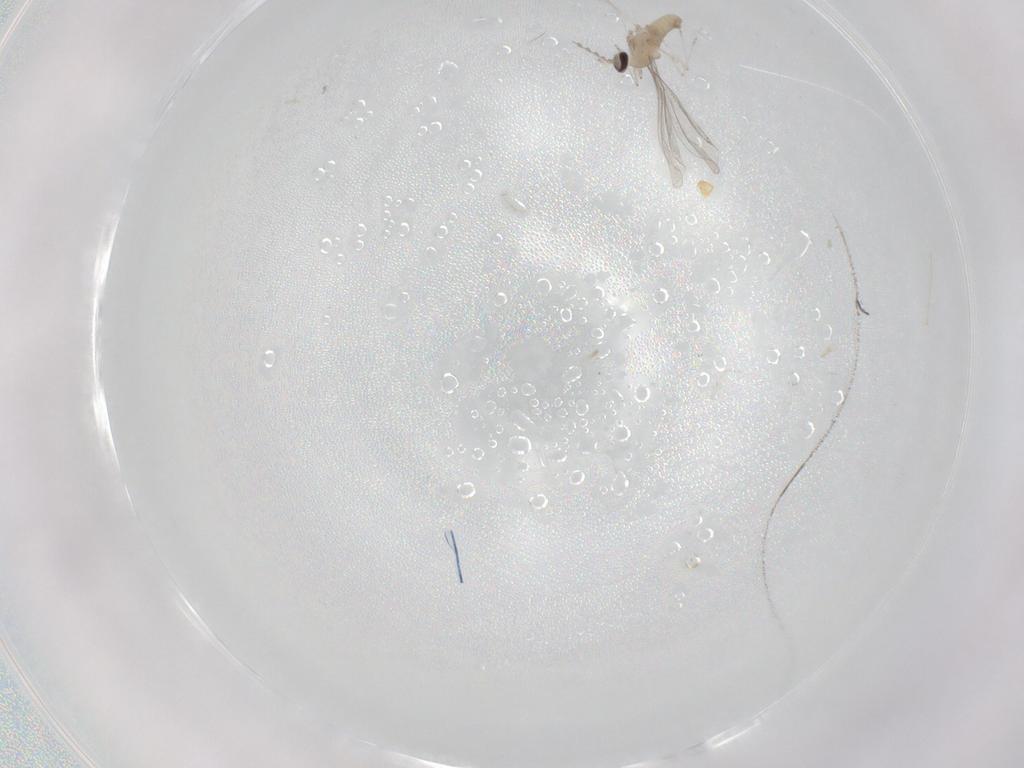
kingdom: Animalia
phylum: Arthropoda
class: Insecta
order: Diptera
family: Cecidomyiidae
